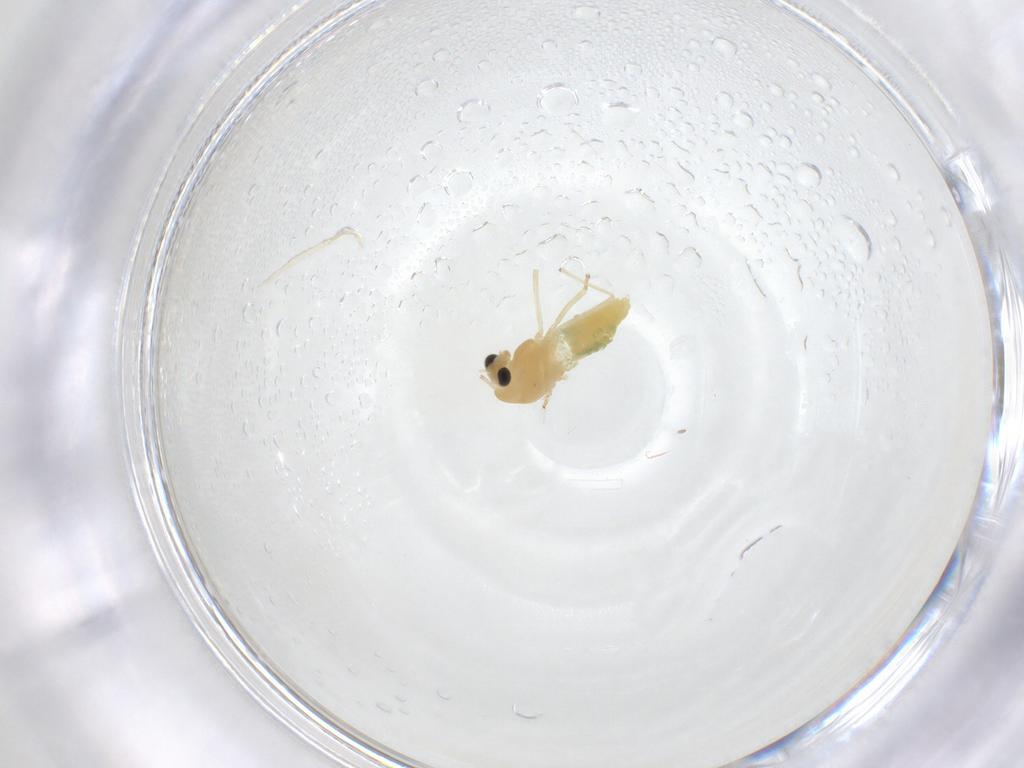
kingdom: Animalia
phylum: Arthropoda
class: Insecta
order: Diptera
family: Chironomidae
